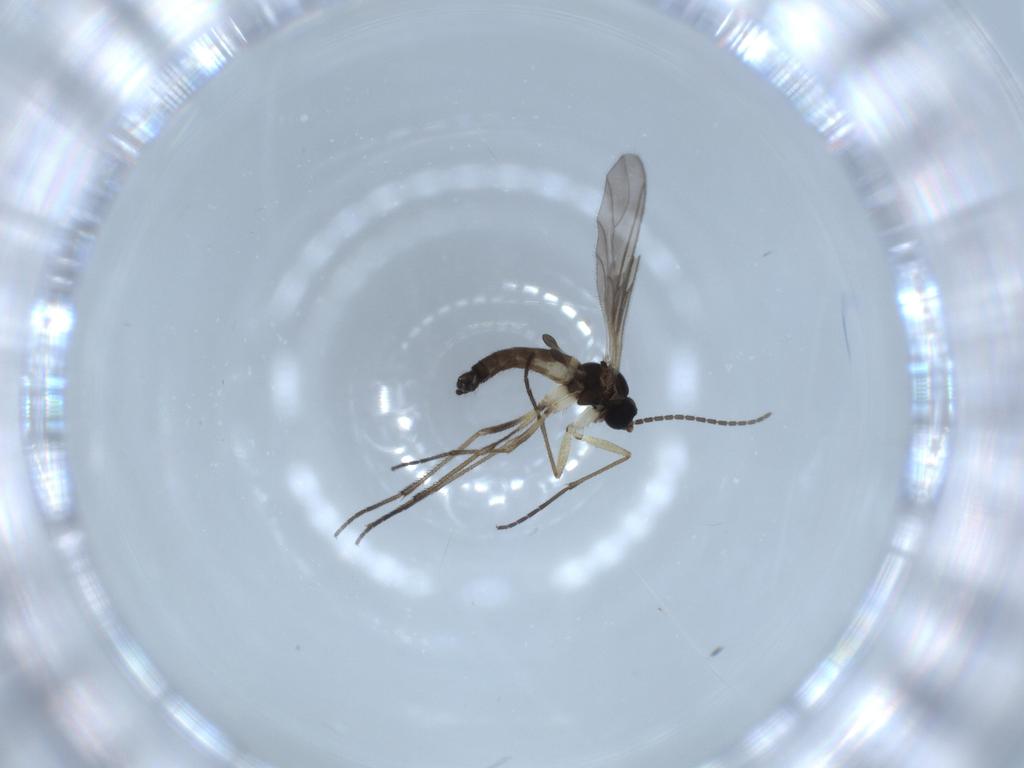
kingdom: Animalia
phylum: Arthropoda
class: Insecta
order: Diptera
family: Sciaridae
